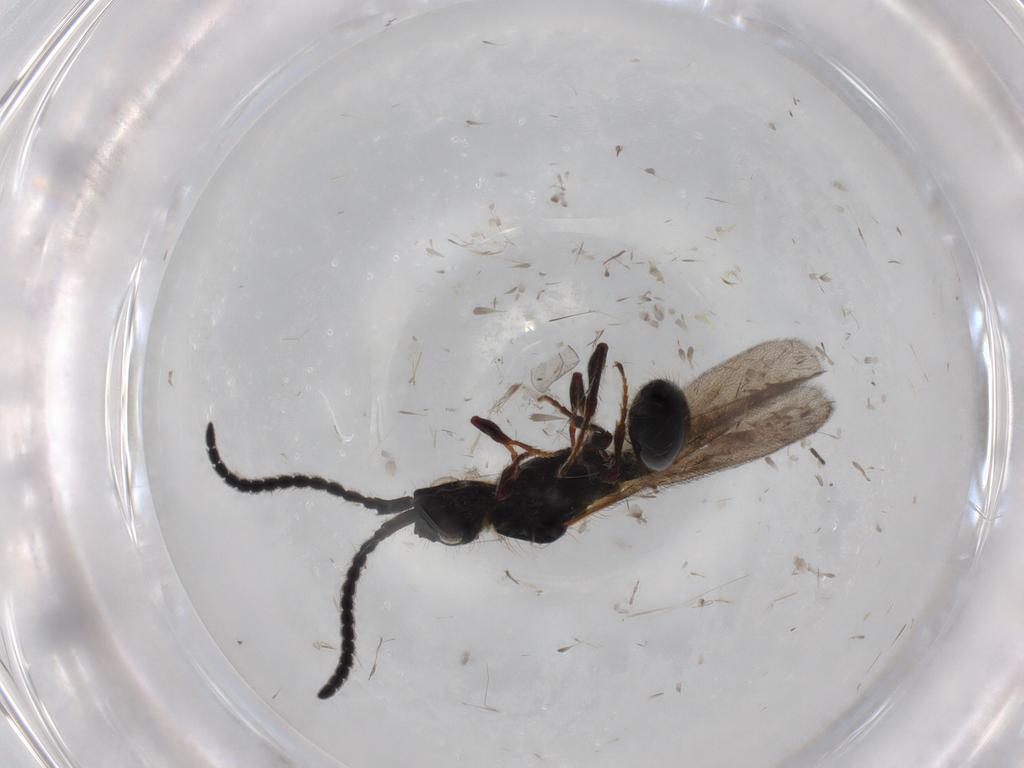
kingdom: Animalia
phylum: Arthropoda
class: Insecta
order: Hymenoptera
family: Diapriidae
